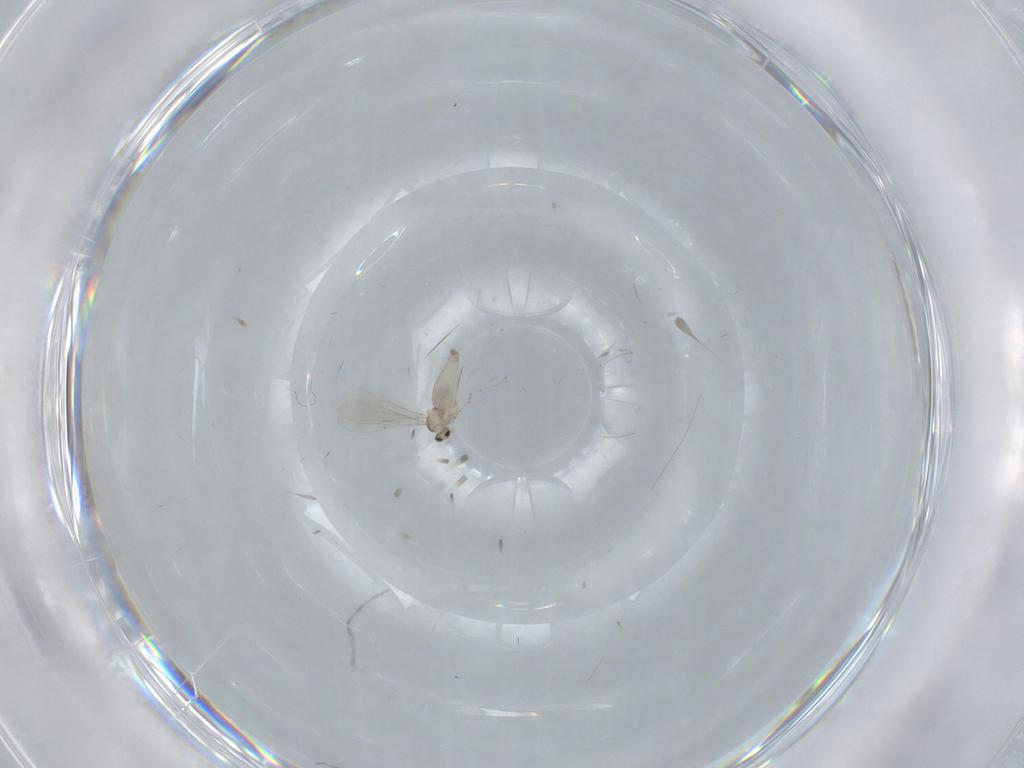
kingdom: Animalia
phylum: Arthropoda
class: Insecta
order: Diptera
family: Cecidomyiidae
